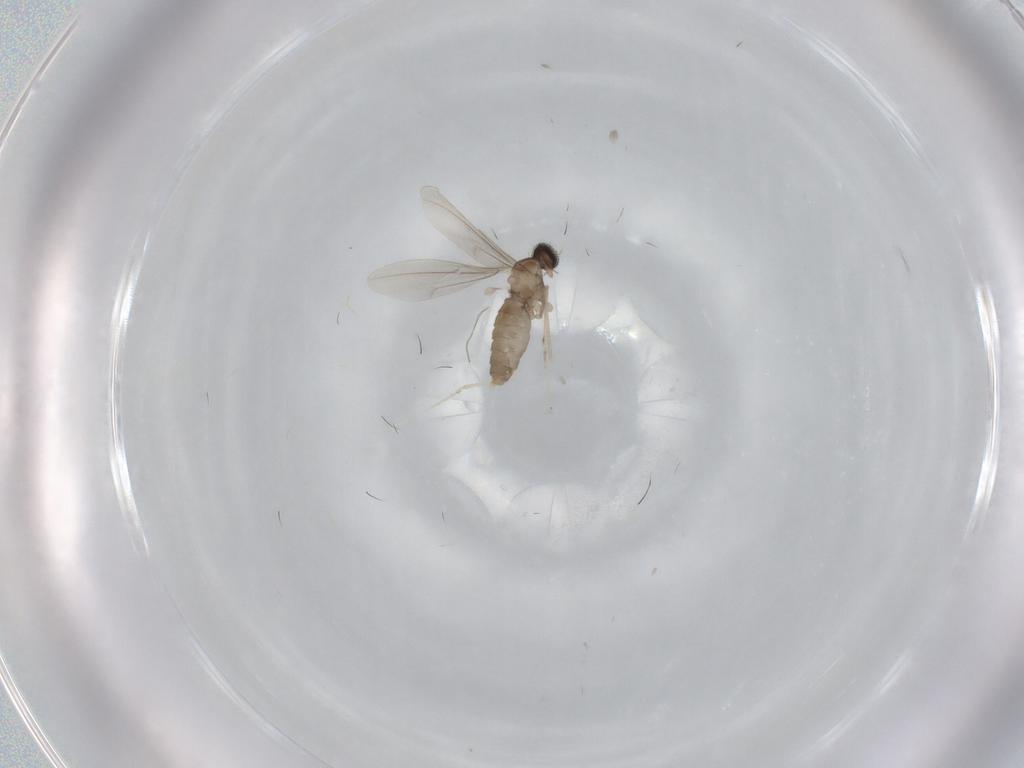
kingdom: Animalia
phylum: Arthropoda
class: Insecta
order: Diptera
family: Cecidomyiidae
